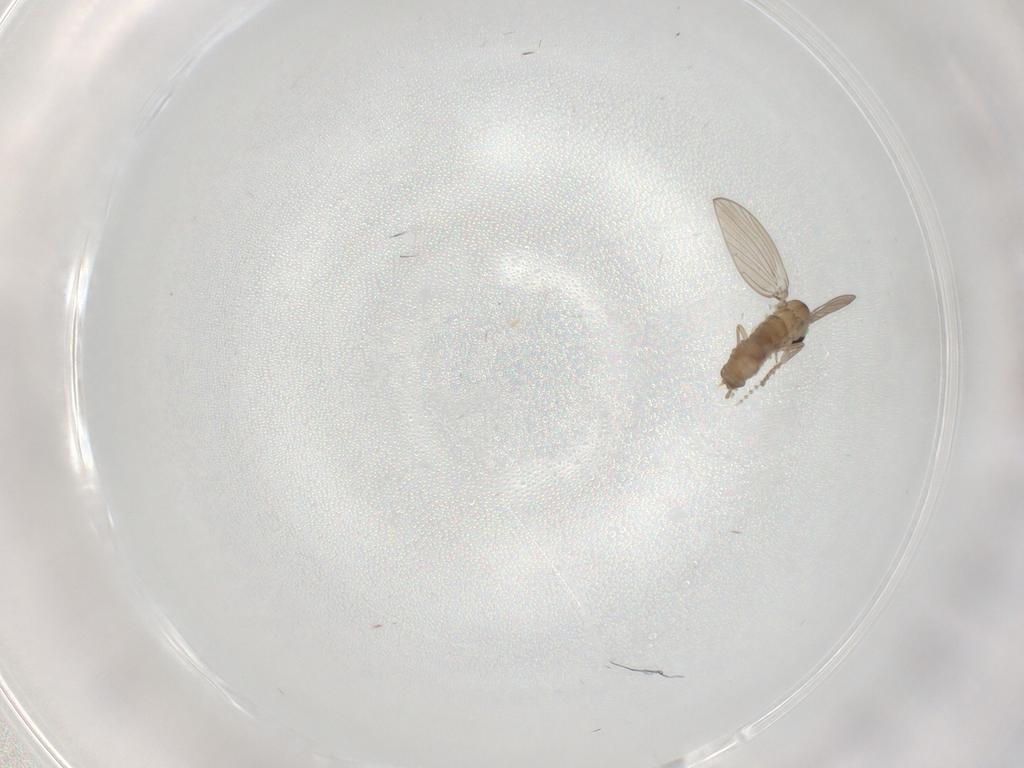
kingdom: Animalia
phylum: Arthropoda
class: Insecta
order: Diptera
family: Psychodidae
